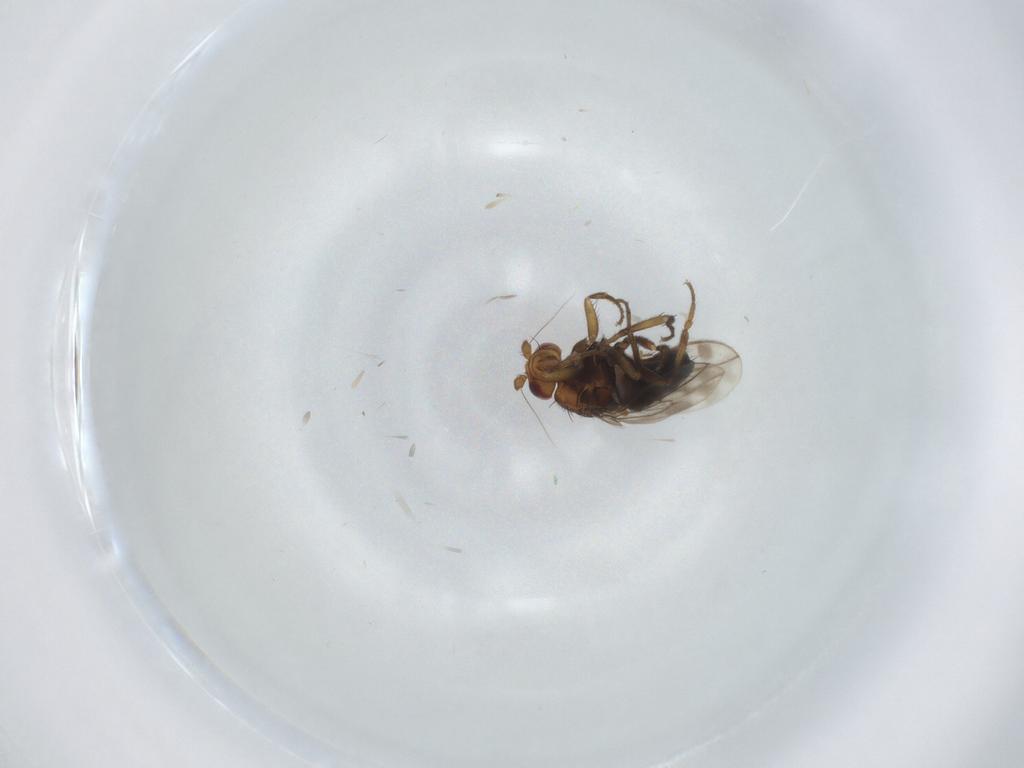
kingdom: Animalia
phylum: Arthropoda
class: Insecta
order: Diptera
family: Sphaeroceridae
